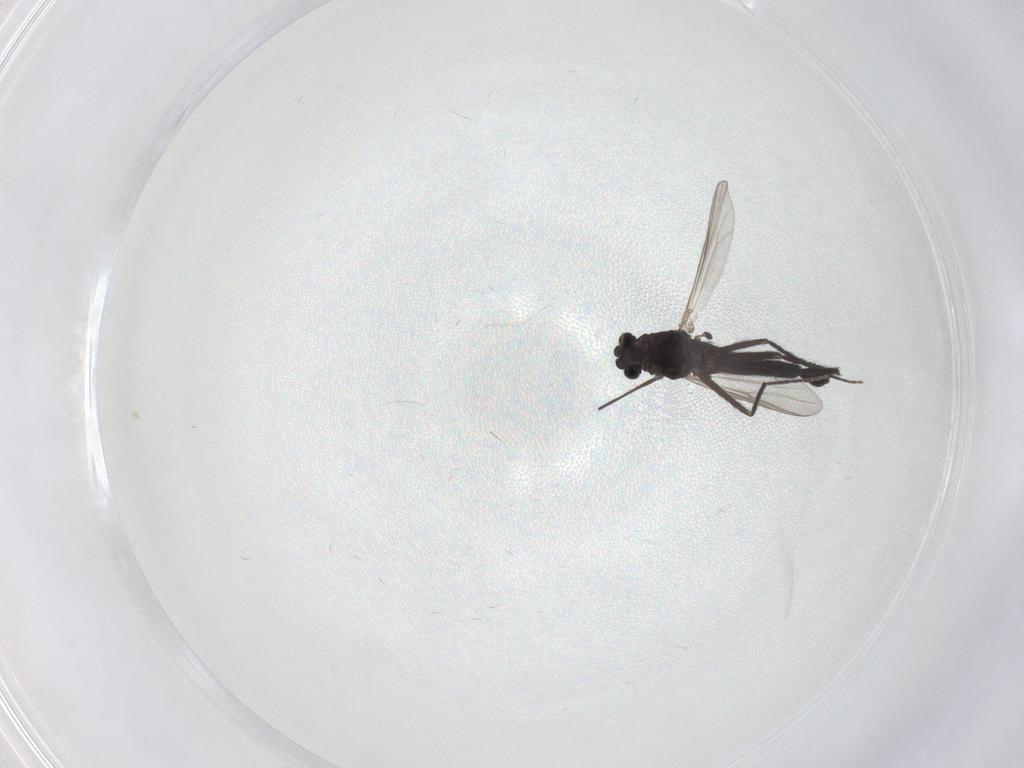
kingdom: Animalia
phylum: Arthropoda
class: Insecta
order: Diptera
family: Chironomidae
